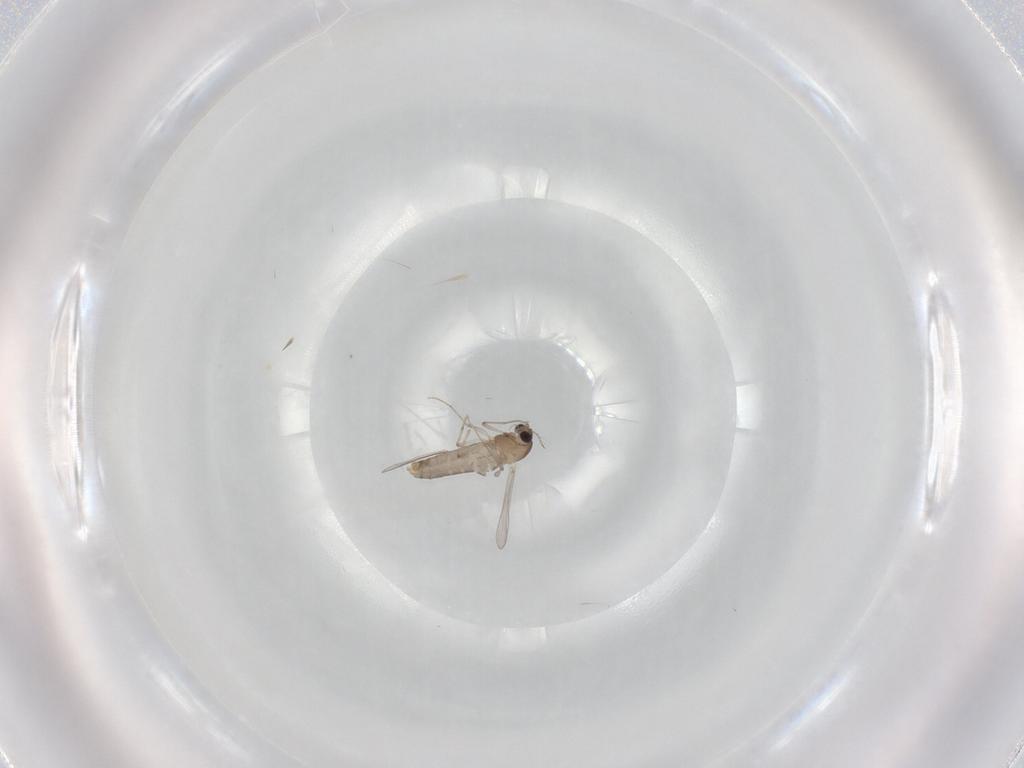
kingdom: Animalia
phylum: Arthropoda
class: Insecta
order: Diptera
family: Chironomidae
